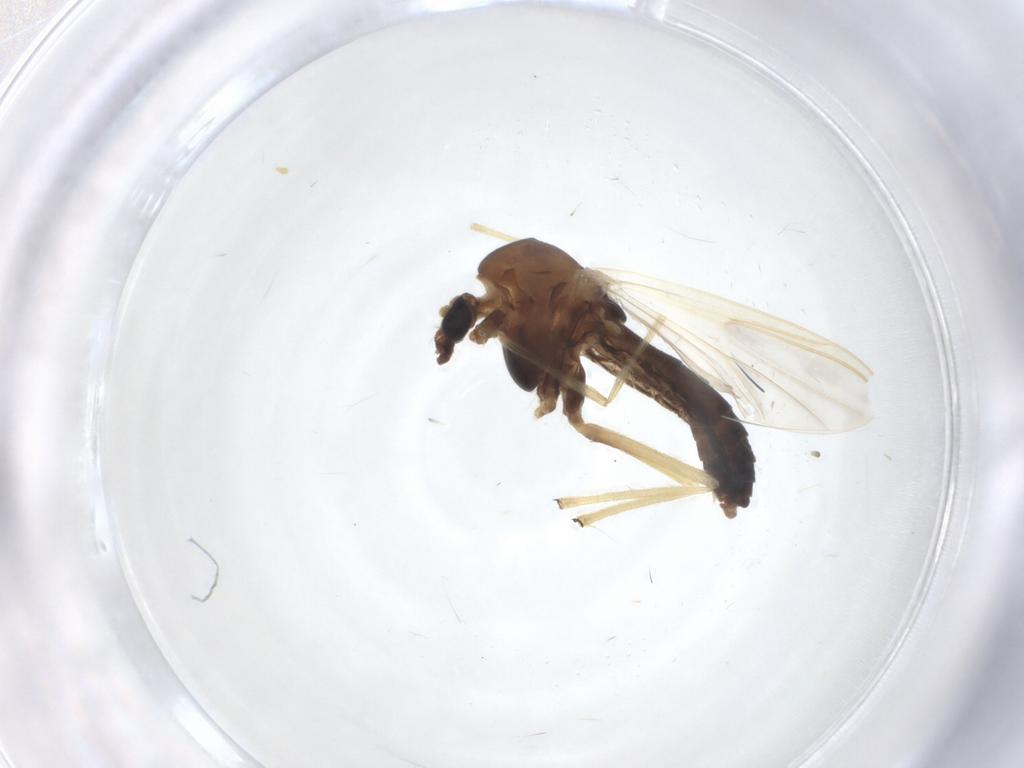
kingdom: Animalia
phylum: Arthropoda
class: Insecta
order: Diptera
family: Chironomidae
